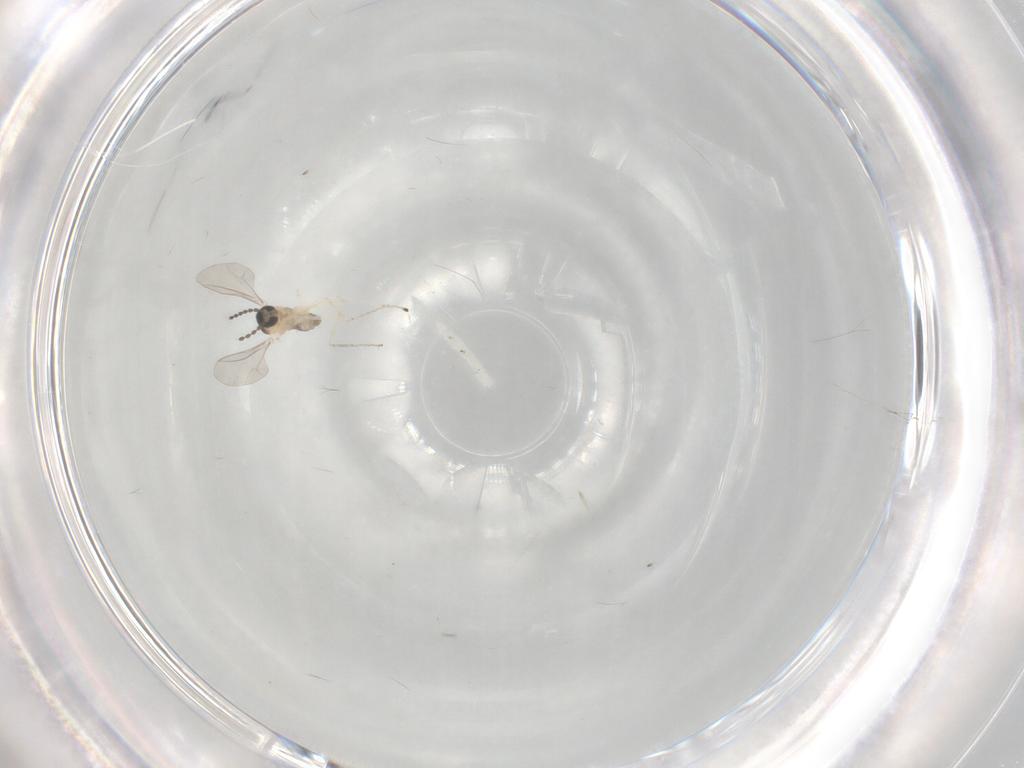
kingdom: Animalia
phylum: Arthropoda
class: Insecta
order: Diptera
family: Cecidomyiidae
